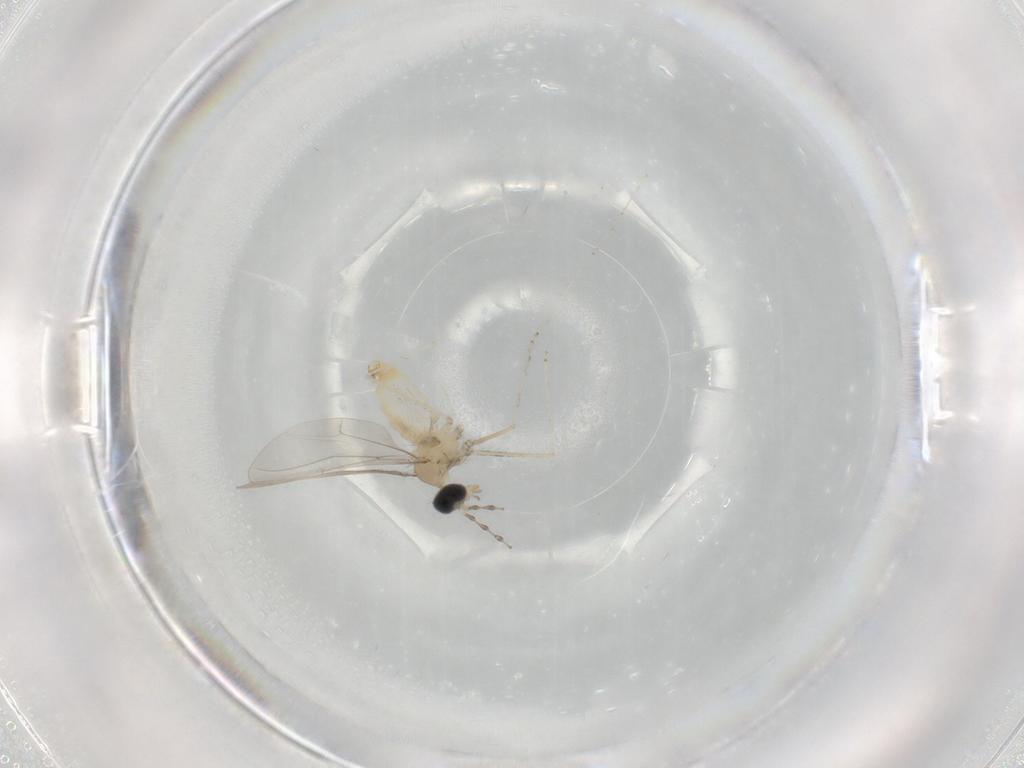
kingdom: Animalia
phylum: Arthropoda
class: Insecta
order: Diptera
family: Cecidomyiidae
